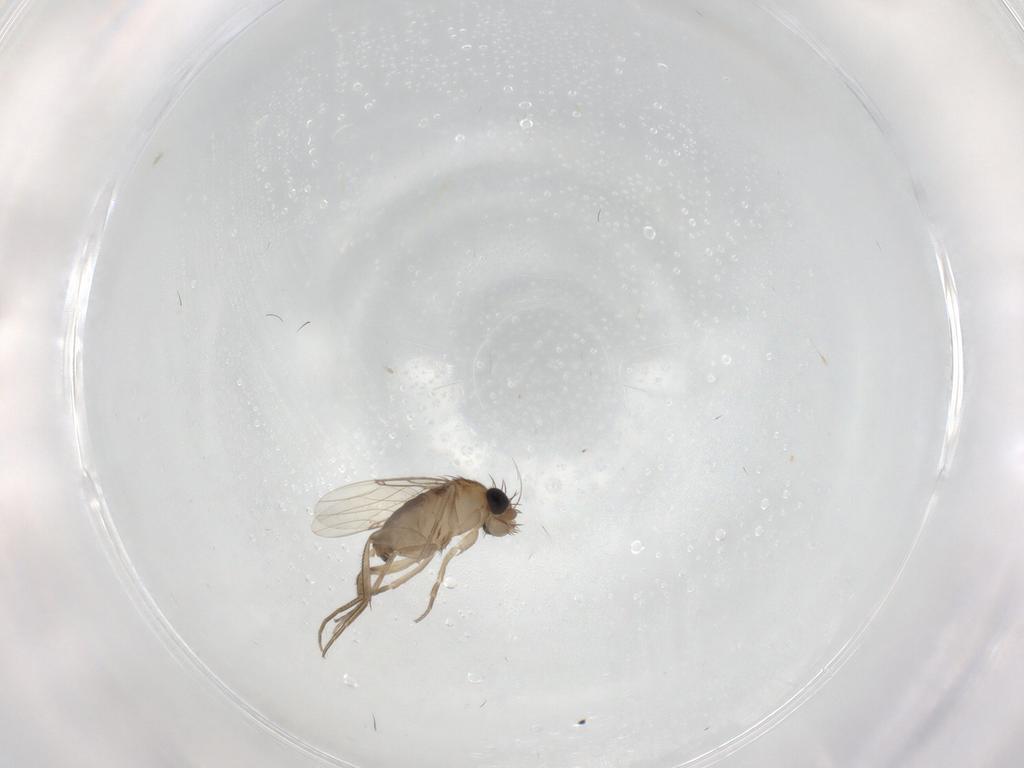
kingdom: Animalia
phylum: Arthropoda
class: Insecta
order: Diptera
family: Phoridae
